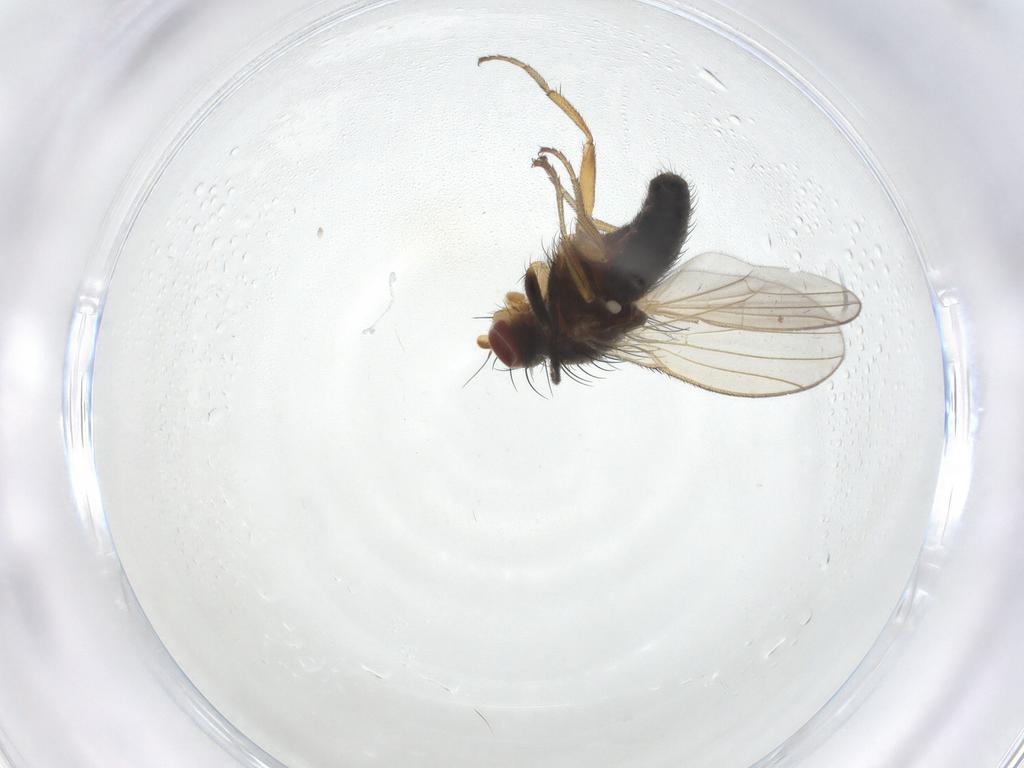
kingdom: Animalia
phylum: Arthropoda
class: Insecta
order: Diptera
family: Heleomyzidae
